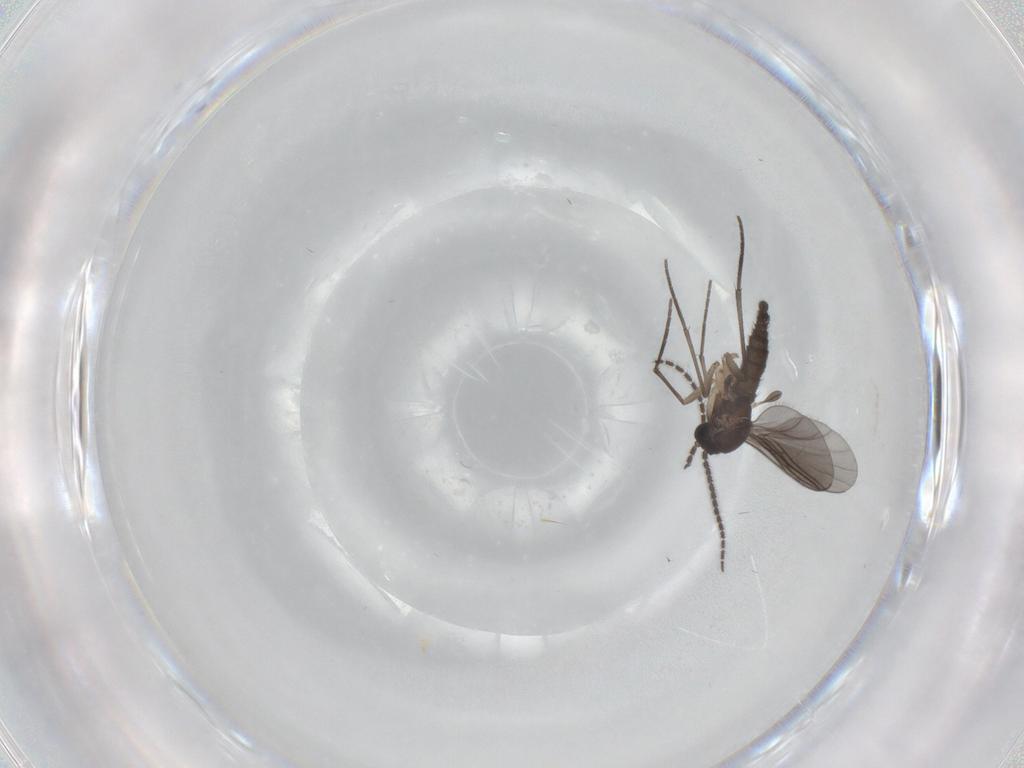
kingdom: Animalia
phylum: Arthropoda
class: Insecta
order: Diptera
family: Sciaridae
